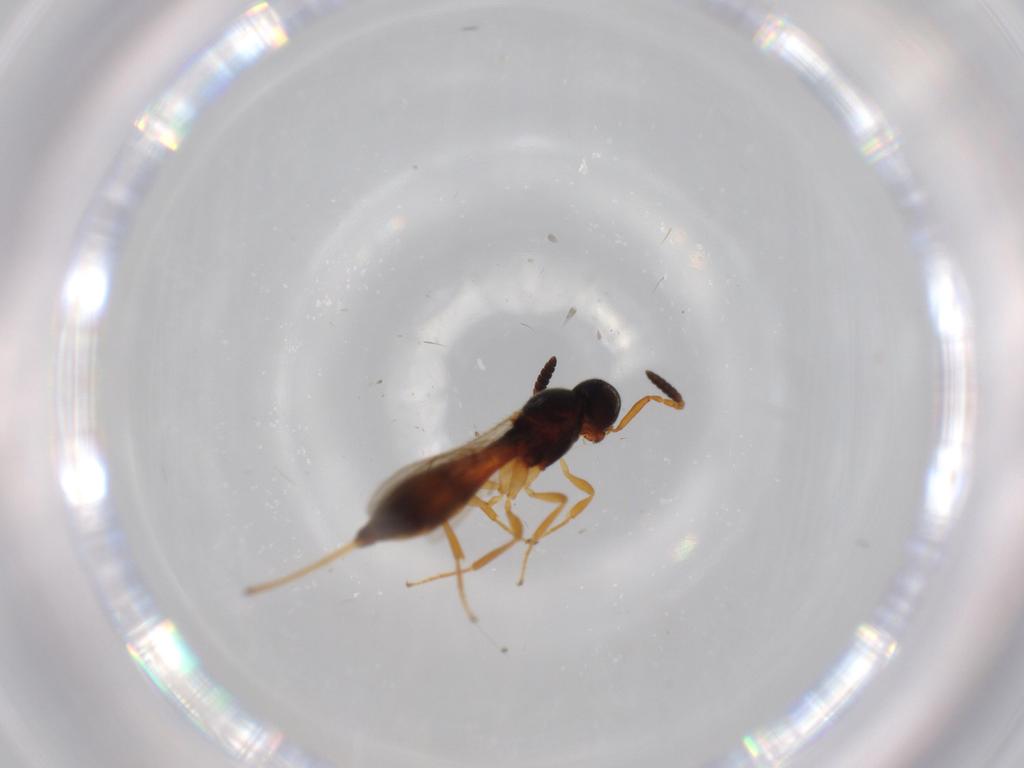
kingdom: Animalia
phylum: Arthropoda
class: Insecta
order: Hymenoptera
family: Scelionidae
